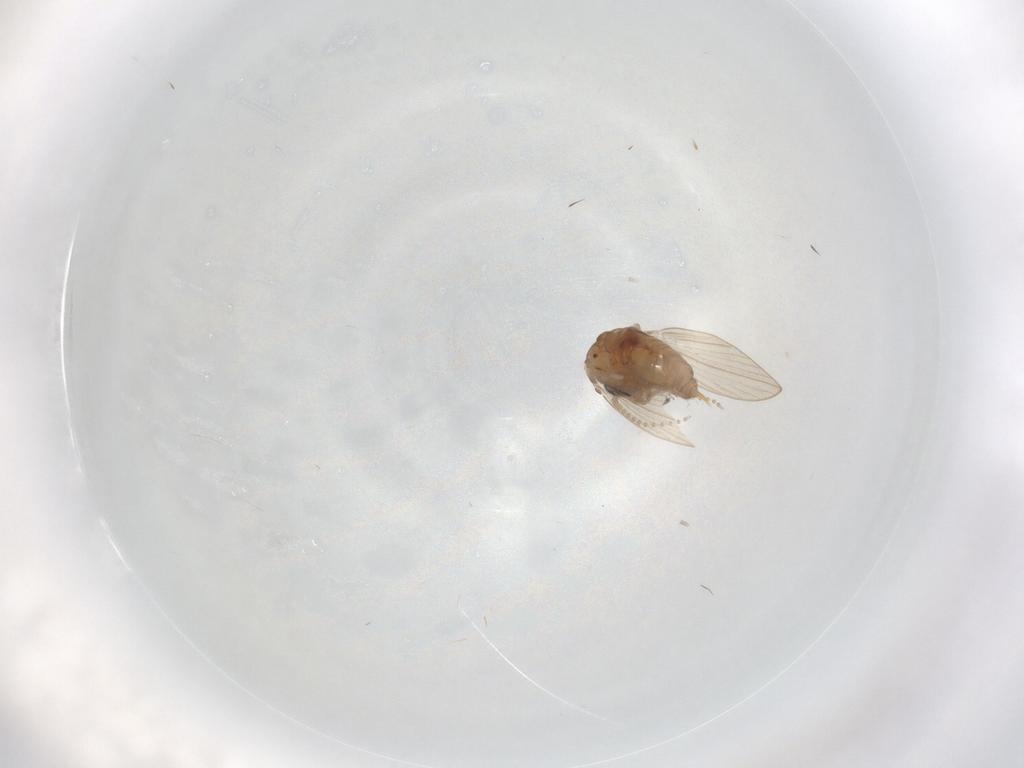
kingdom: Animalia
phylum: Arthropoda
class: Insecta
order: Diptera
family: Psychodidae
